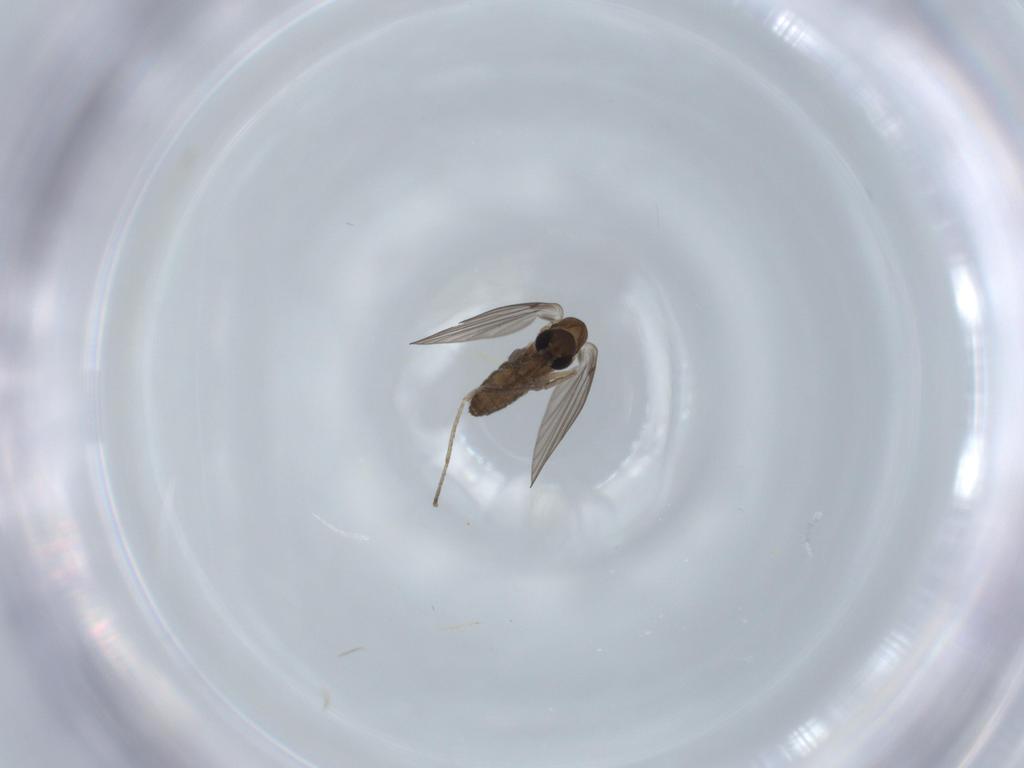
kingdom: Animalia
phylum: Arthropoda
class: Insecta
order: Diptera
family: Psychodidae
